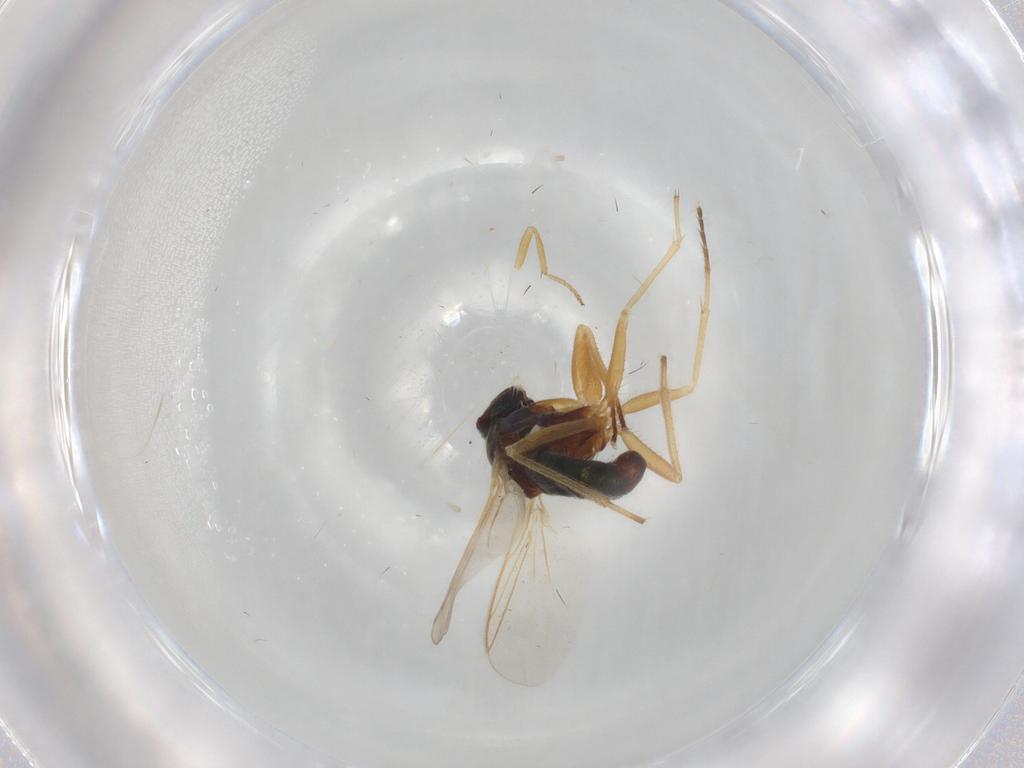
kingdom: Animalia
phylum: Arthropoda
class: Insecta
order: Diptera
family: Dolichopodidae
